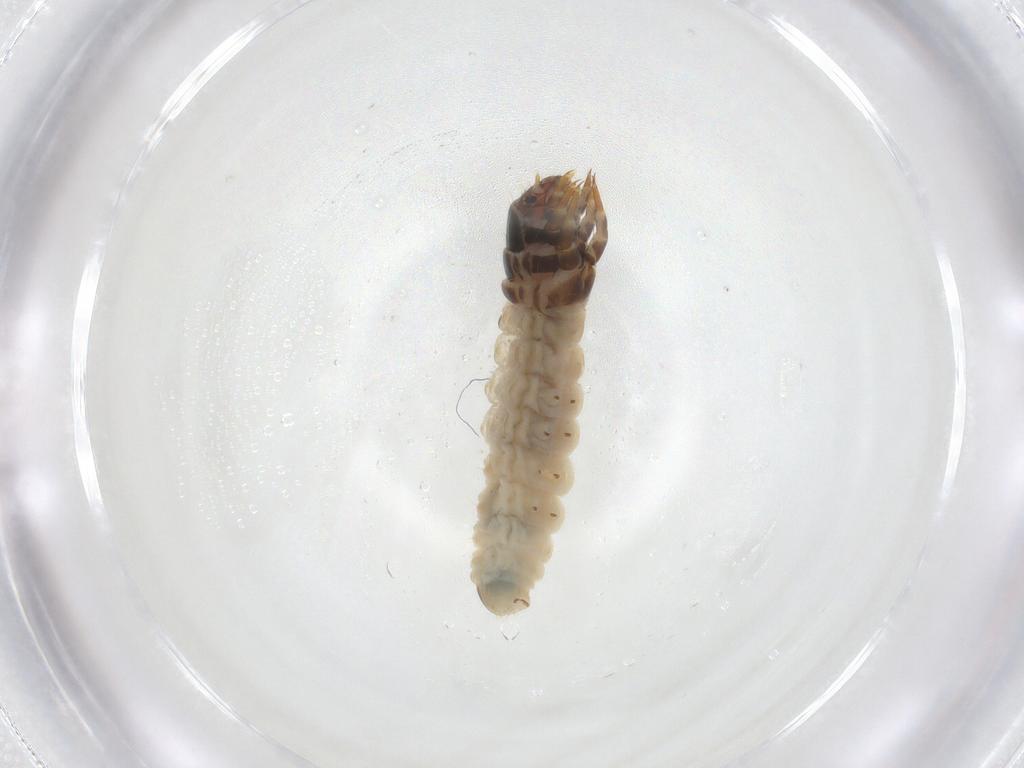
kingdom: Animalia
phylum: Arthropoda
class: Insecta
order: Lepidoptera
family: Psychidae
